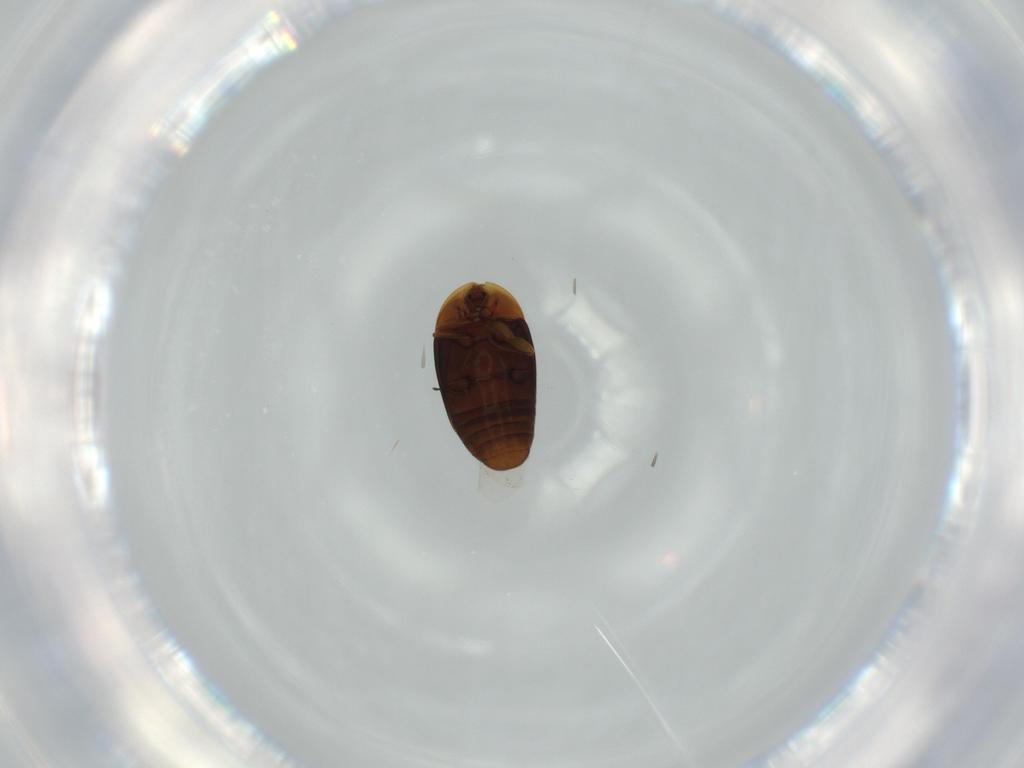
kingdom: Animalia
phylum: Arthropoda
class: Insecta
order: Coleoptera
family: Corylophidae
